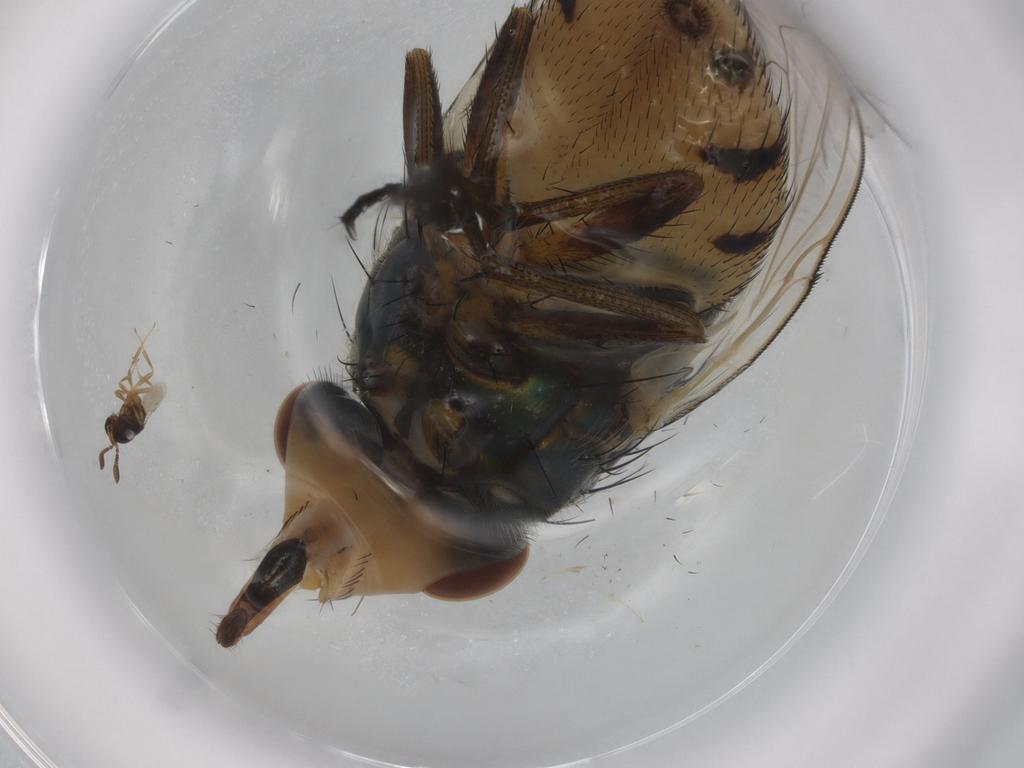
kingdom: Animalia
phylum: Arthropoda
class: Insecta
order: Diptera
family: Calliphoridae
